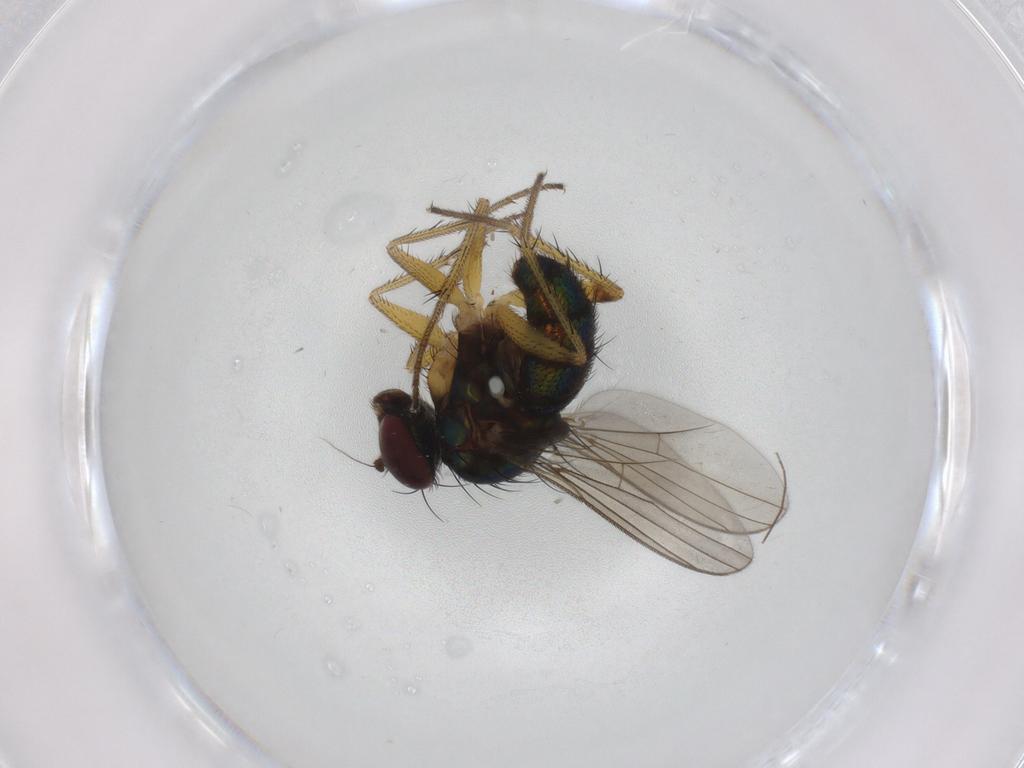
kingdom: Animalia
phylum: Arthropoda
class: Insecta
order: Diptera
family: Dolichopodidae
